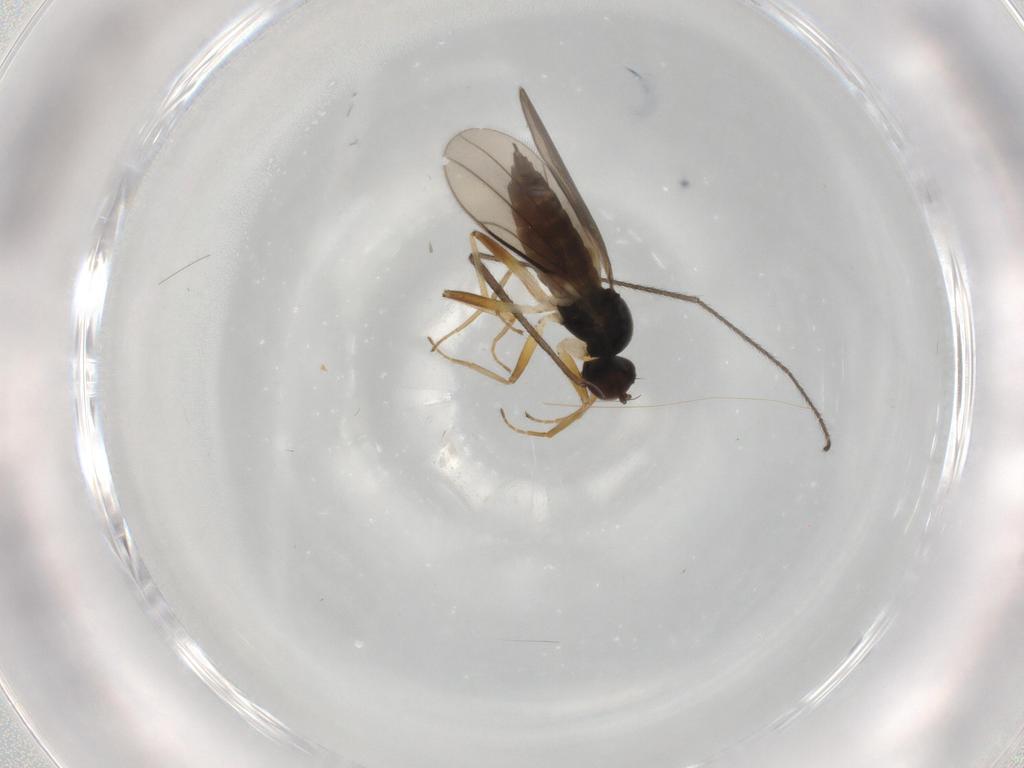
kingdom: Animalia
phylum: Arthropoda
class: Insecta
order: Diptera
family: Hybotidae
